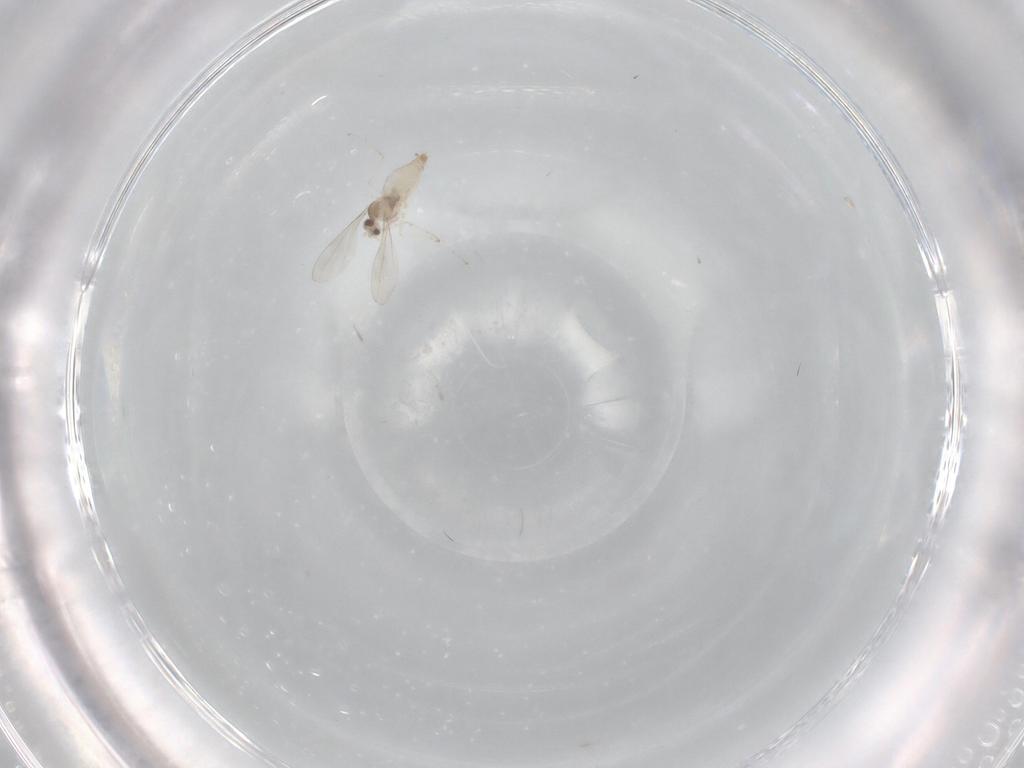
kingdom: Animalia
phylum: Arthropoda
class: Insecta
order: Diptera
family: Cecidomyiidae
